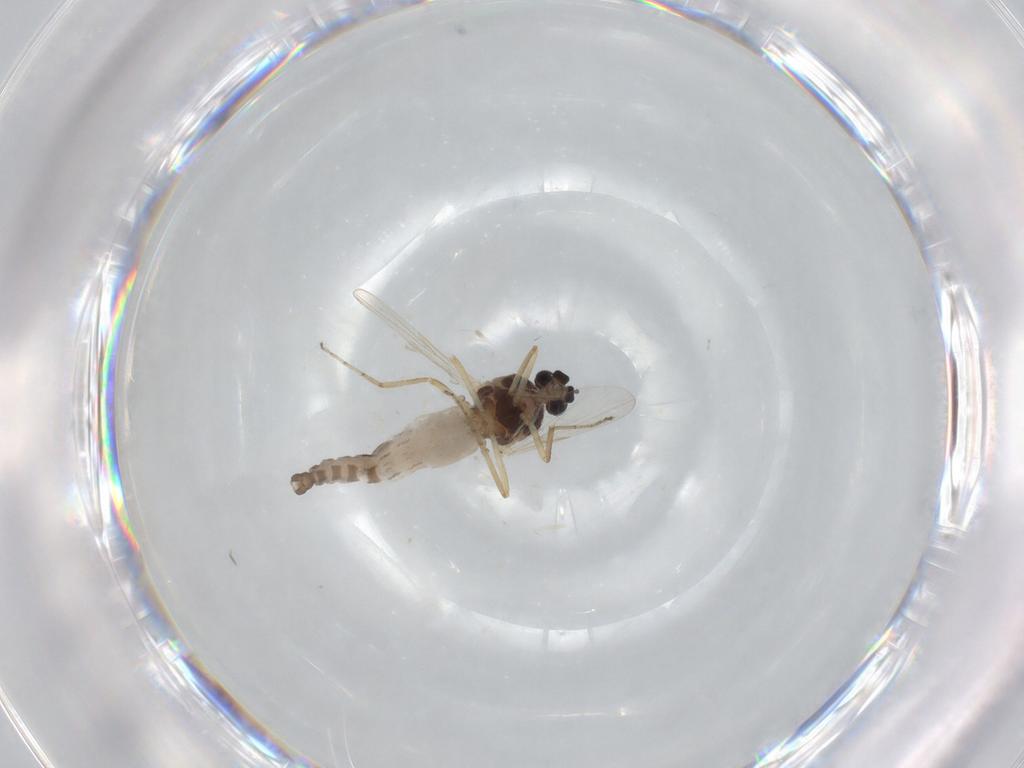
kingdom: Animalia
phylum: Arthropoda
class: Insecta
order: Diptera
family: Ceratopogonidae
